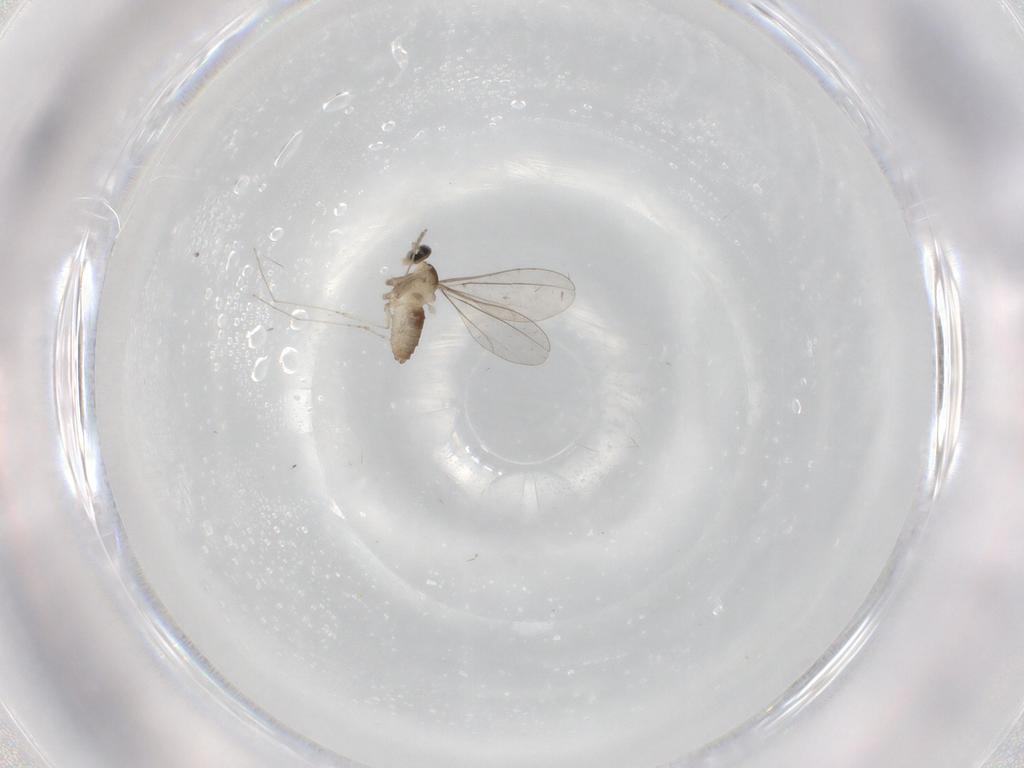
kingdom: Animalia
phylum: Arthropoda
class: Insecta
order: Diptera
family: Cecidomyiidae
